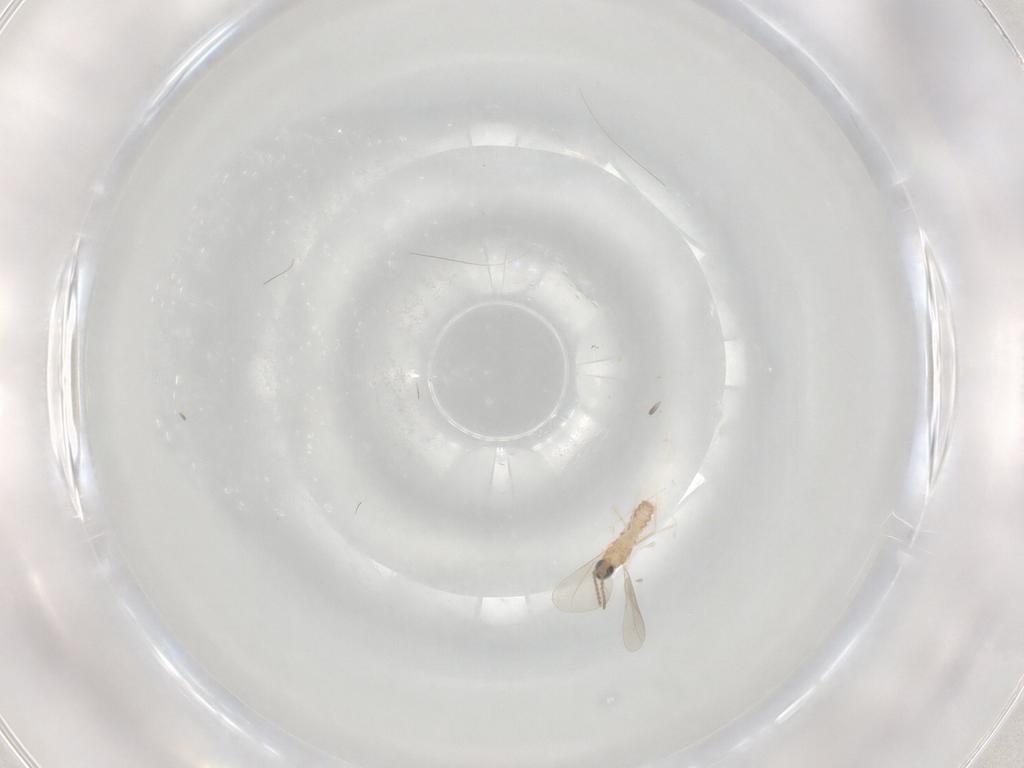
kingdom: Animalia
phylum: Arthropoda
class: Insecta
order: Diptera
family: Cecidomyiidae
